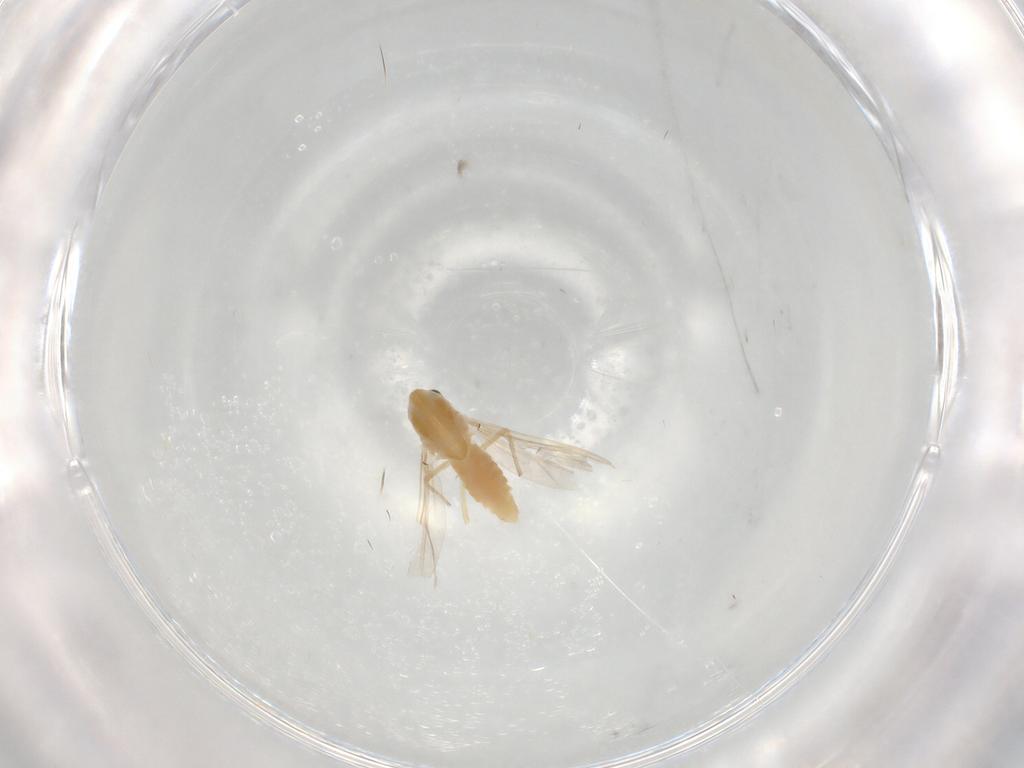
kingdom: Animalia
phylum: Arthropoda
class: Insecta
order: Diptera
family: Chironomidae
